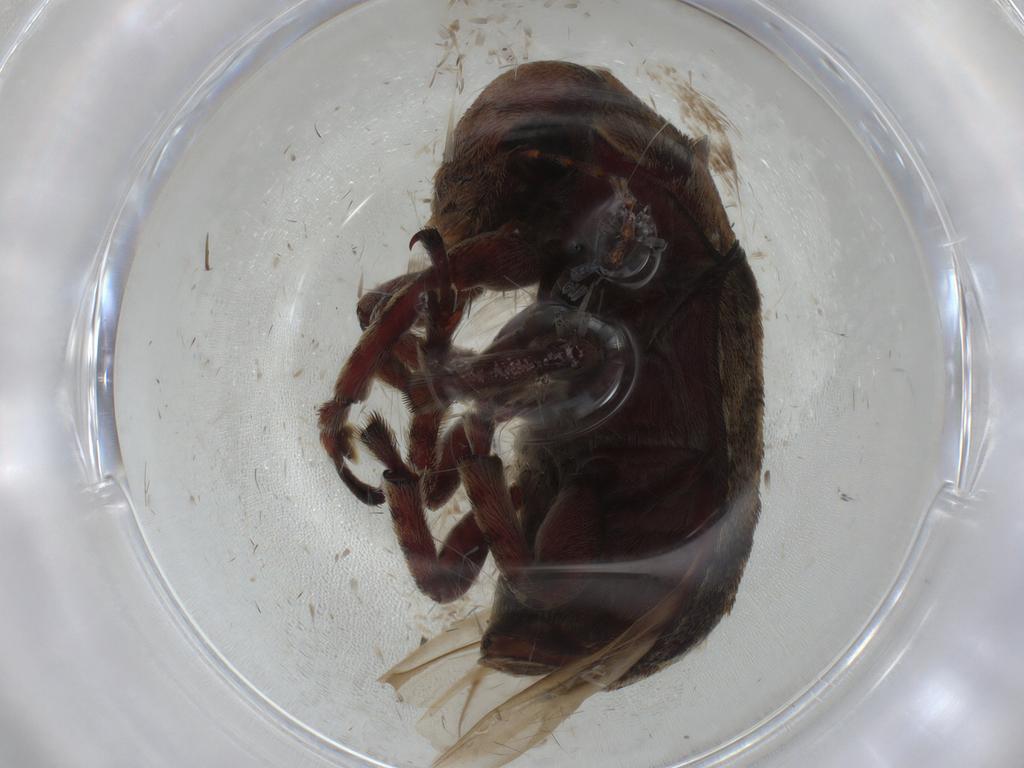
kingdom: Animalia
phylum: Arthropoda
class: Insecta
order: Coleoptera
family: Anthribidae
